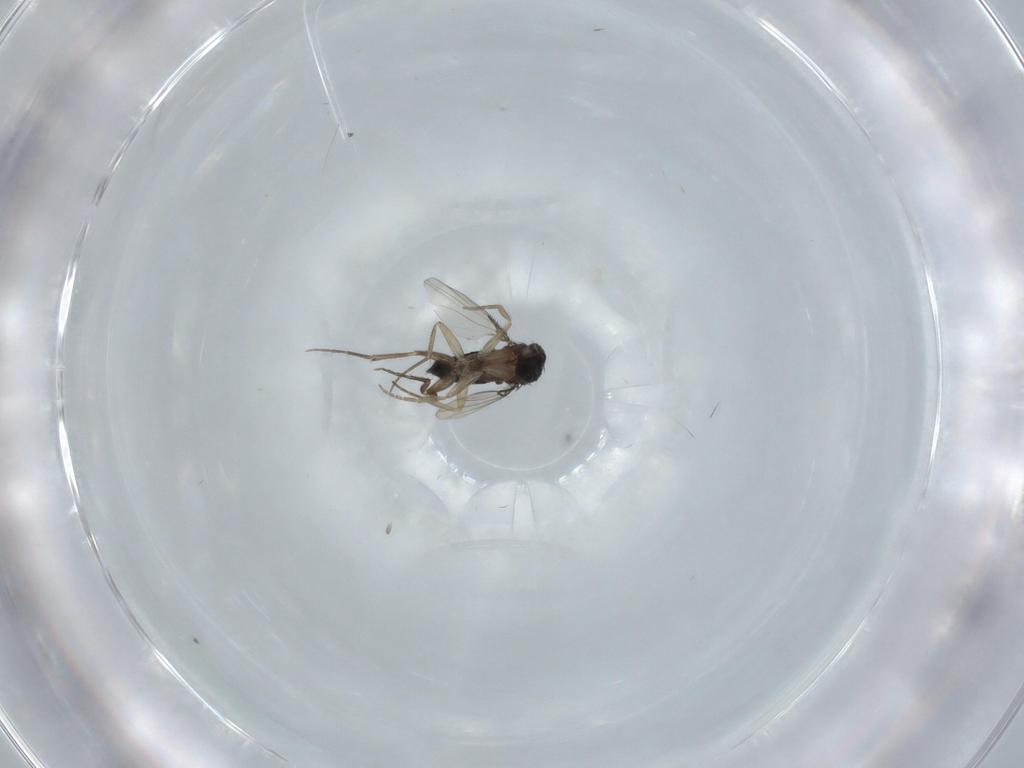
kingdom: Animalia
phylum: Arthropoda
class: Insecta
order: Diptera
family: Phoridae
